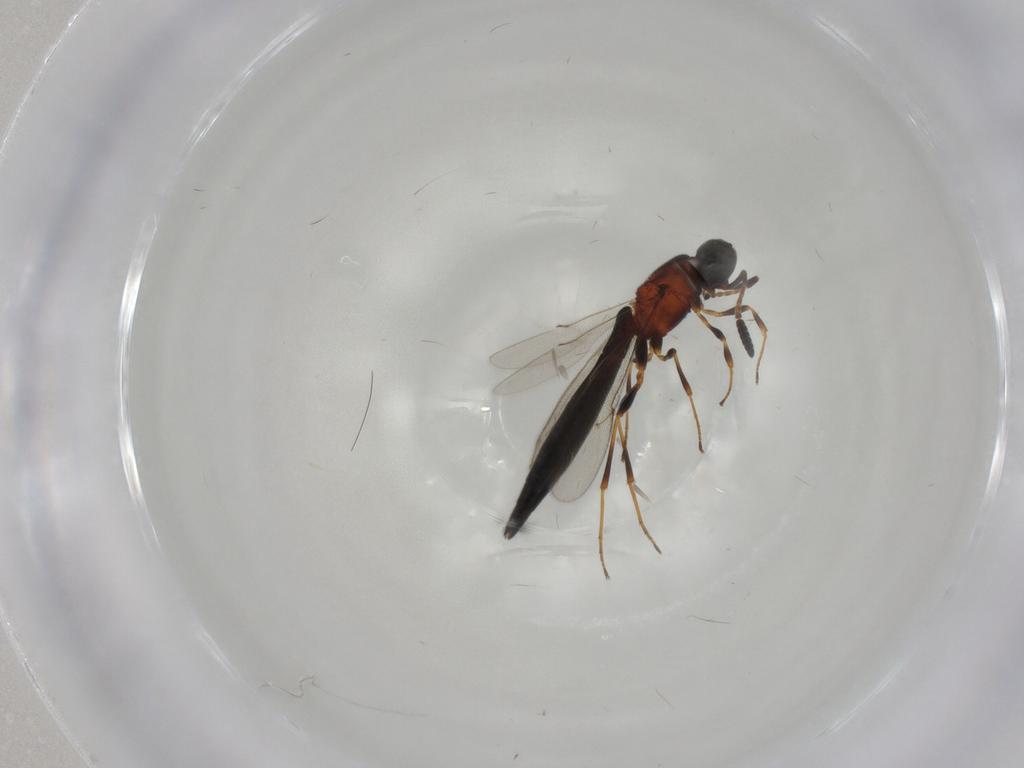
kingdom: Animalia
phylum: Arthropoda
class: Insecta
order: Hymenoptera
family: Scelionidae
